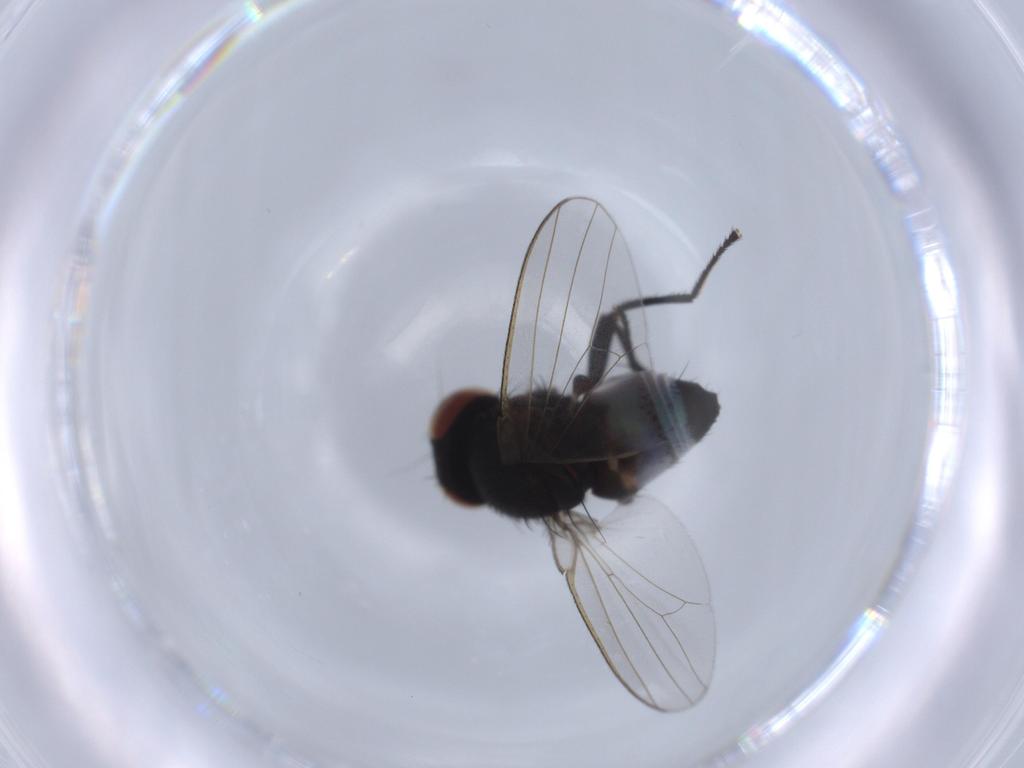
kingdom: Animalia
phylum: Arthropoda
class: Insecta
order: Diptera
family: Milichiidae
